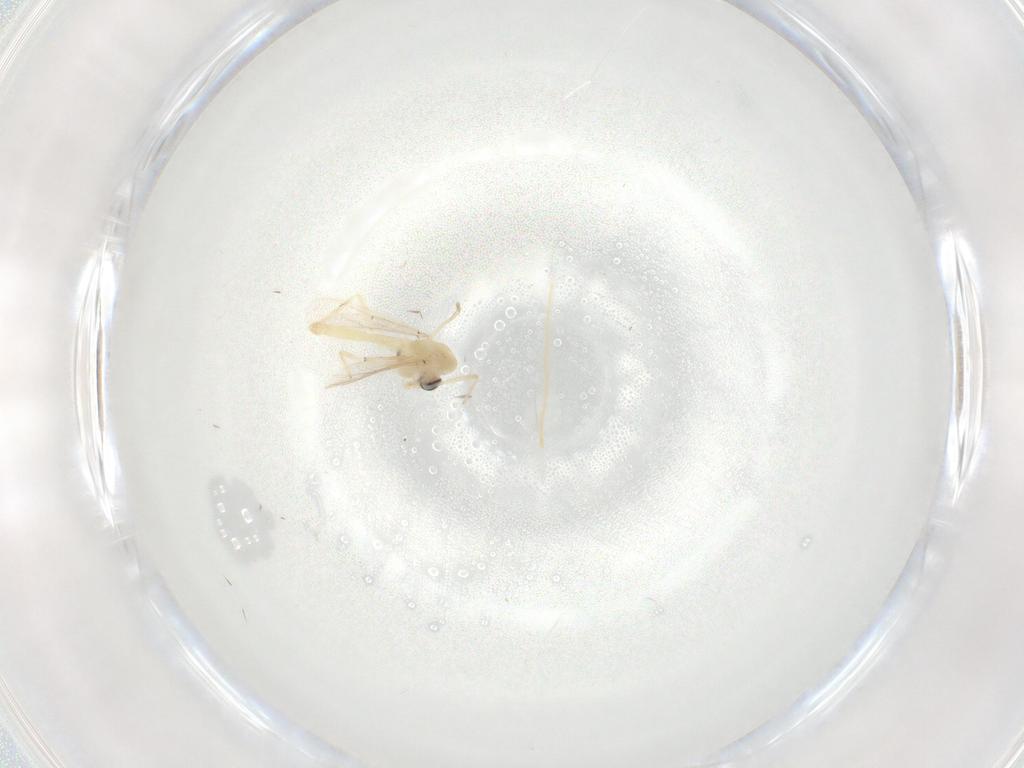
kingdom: Animalia
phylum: Arthropoda
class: Insecta
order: Diptera
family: Chironomidae
